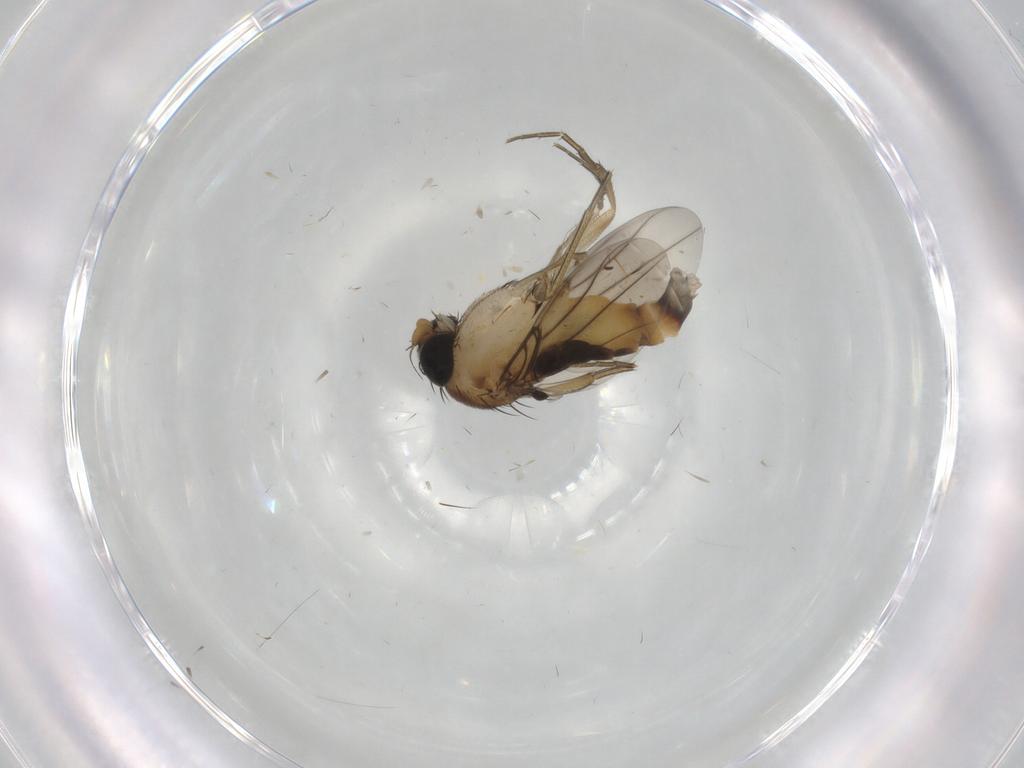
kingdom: Animalia
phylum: Arthropoda
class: Insecta
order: Diptera
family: Phoridae
